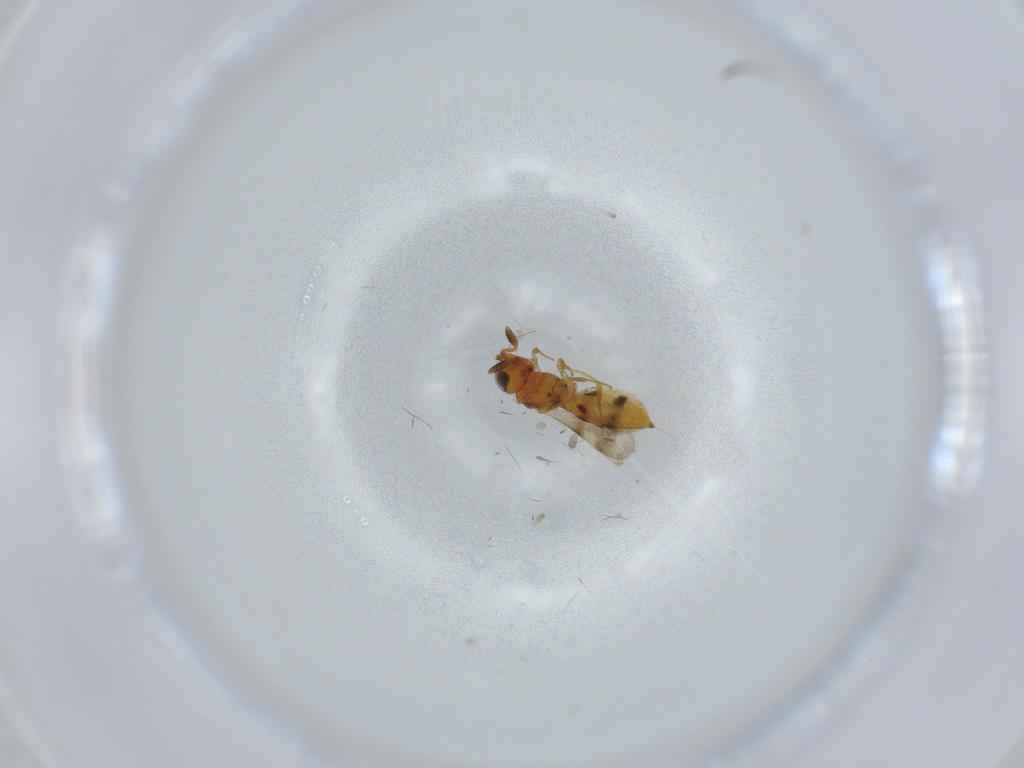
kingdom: Animalia
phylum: Arthropoda
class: Insecta
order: Hymenoptera
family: Scelionidae
